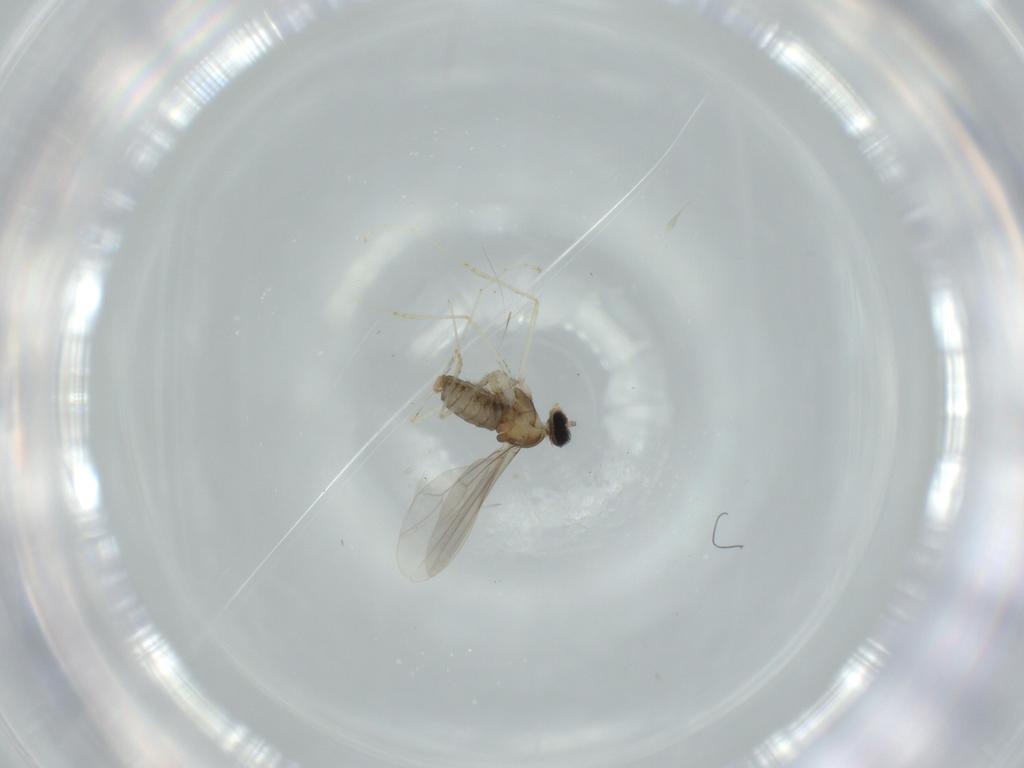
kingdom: Animalia
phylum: Arthropoda
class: Insecta
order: Diptera
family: Cecidomyiidae
